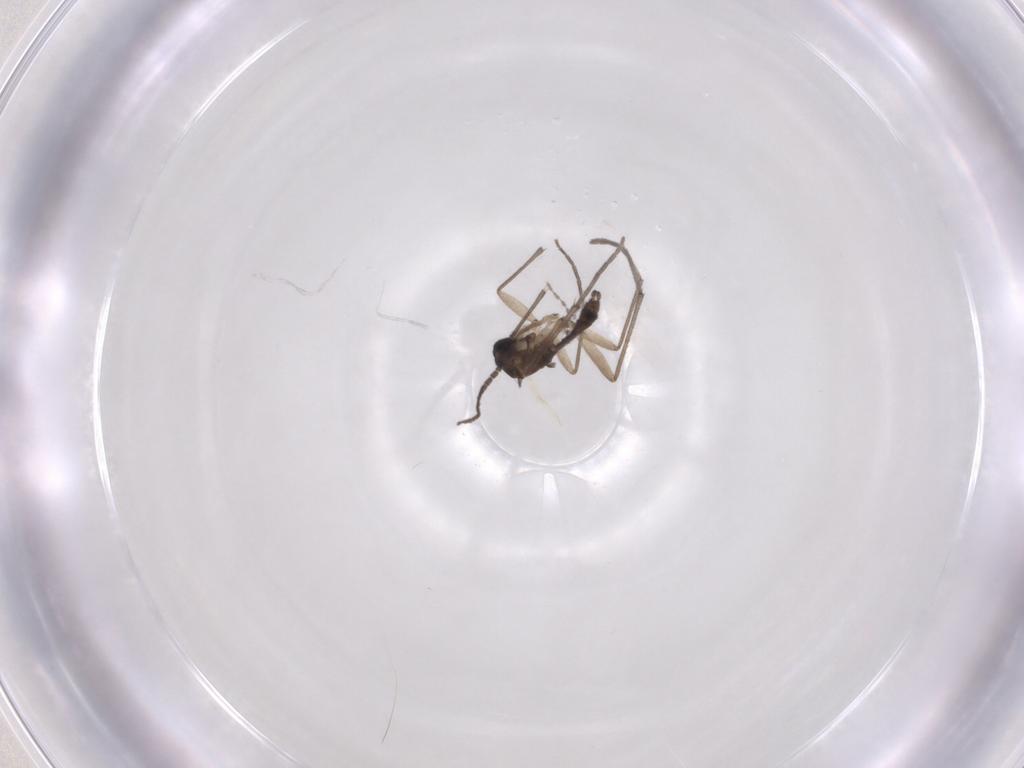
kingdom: Animalia
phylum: Arthropoda
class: Insecta
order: Diptera
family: Sciaridae
